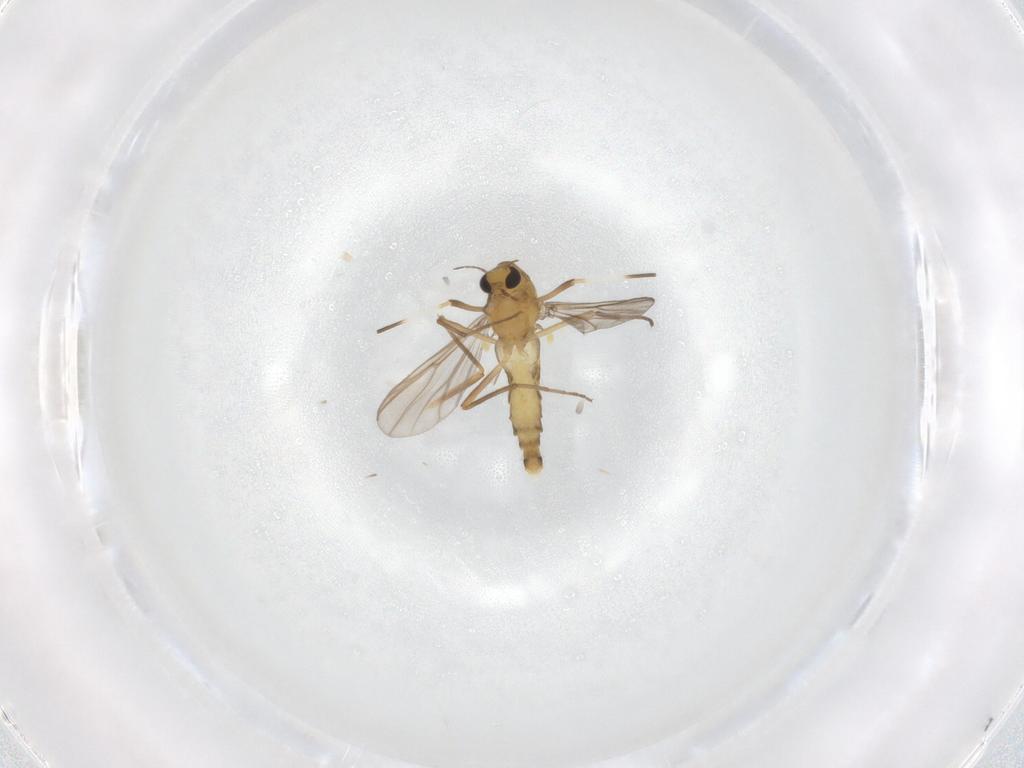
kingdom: Animalia
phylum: Arthropoda
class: Insecta
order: Diptera
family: Chironomidae
